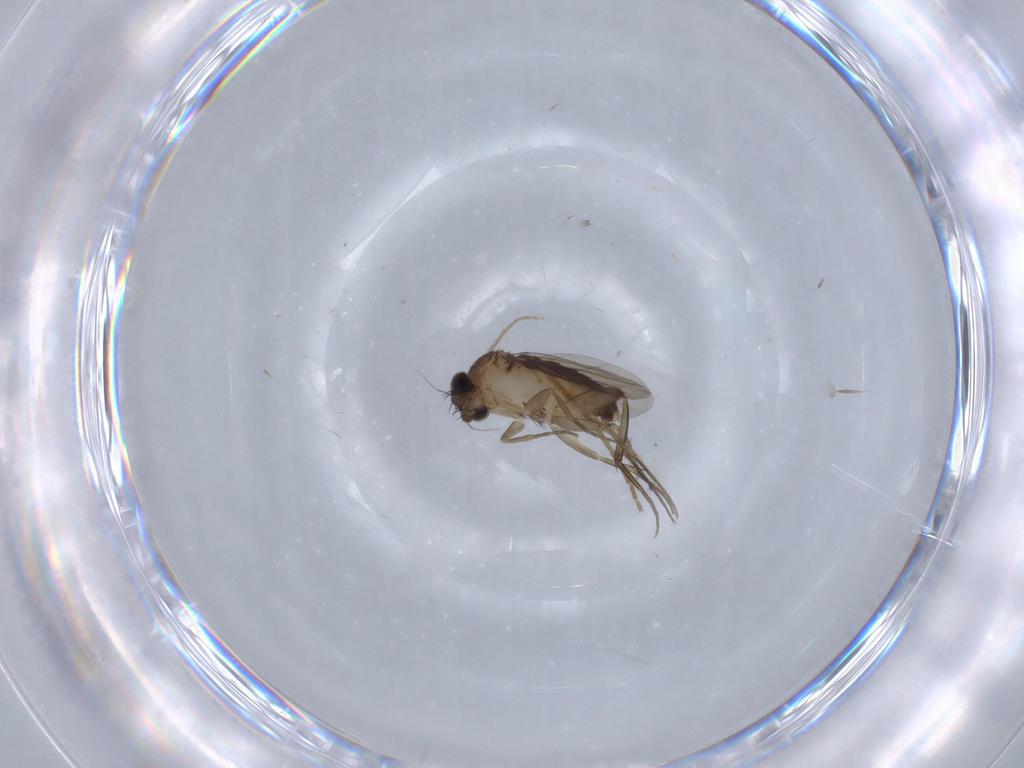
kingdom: Animalia
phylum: Arthropoda
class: Insecta
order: Diptera
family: Phoridae
